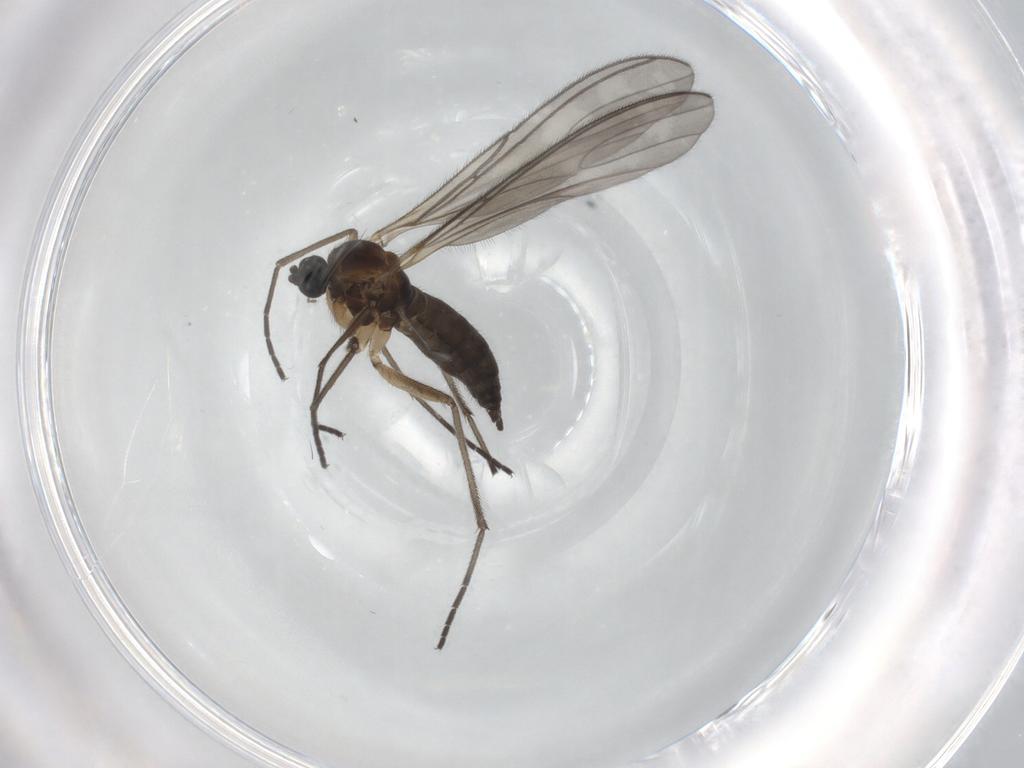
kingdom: Animalia
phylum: Arthropoda
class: Insecta
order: Diptera
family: Sciaridae
